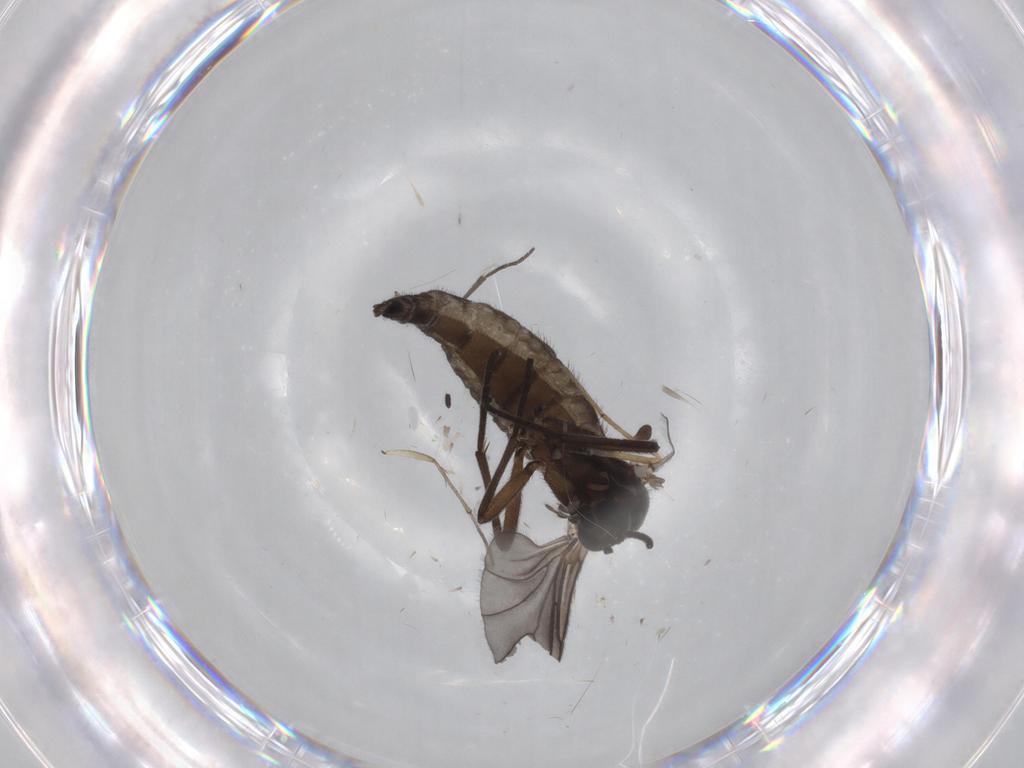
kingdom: Animalia
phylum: Arthropoda
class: Insecta
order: Diptera
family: Sciaridae
